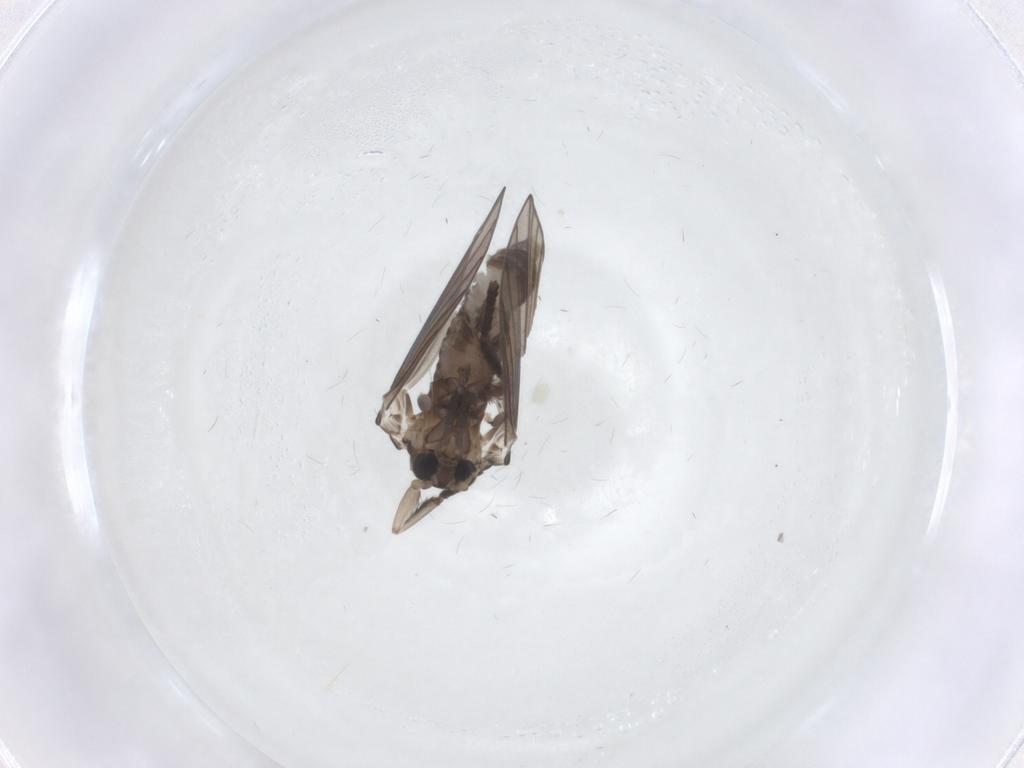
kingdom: Animalia
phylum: Arthropoda
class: Insecta
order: Diptera
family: Psychodidae
